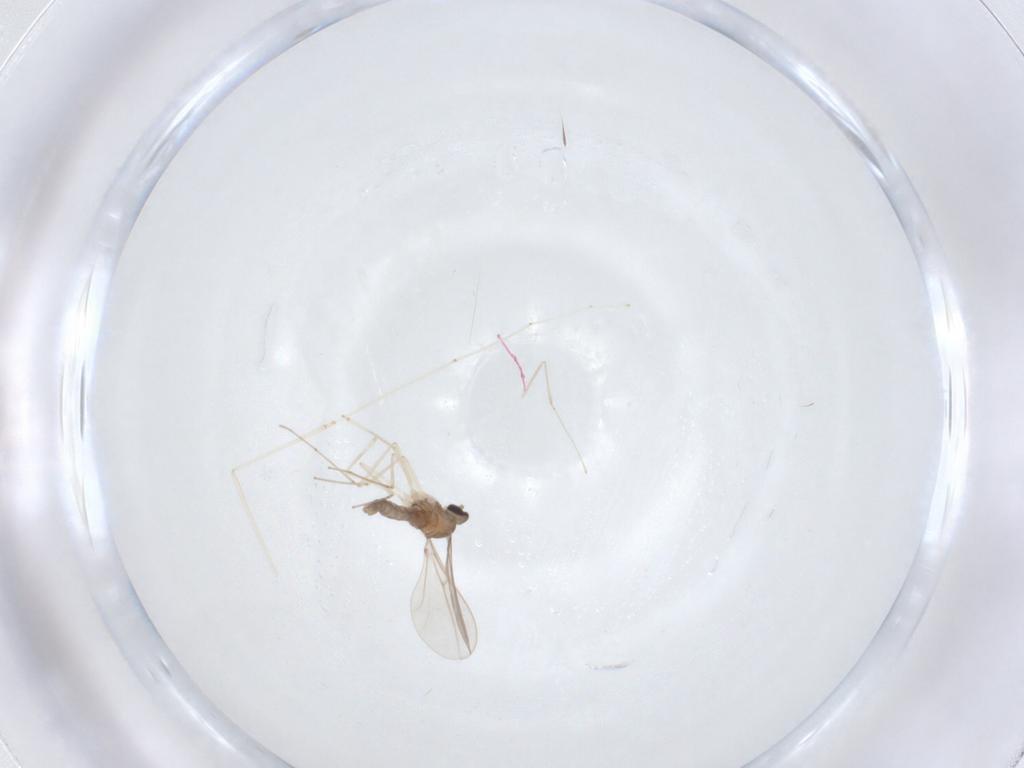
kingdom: Animalia
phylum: Arthropoda
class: Insecta
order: Diptera
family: Cecidomyiidae
